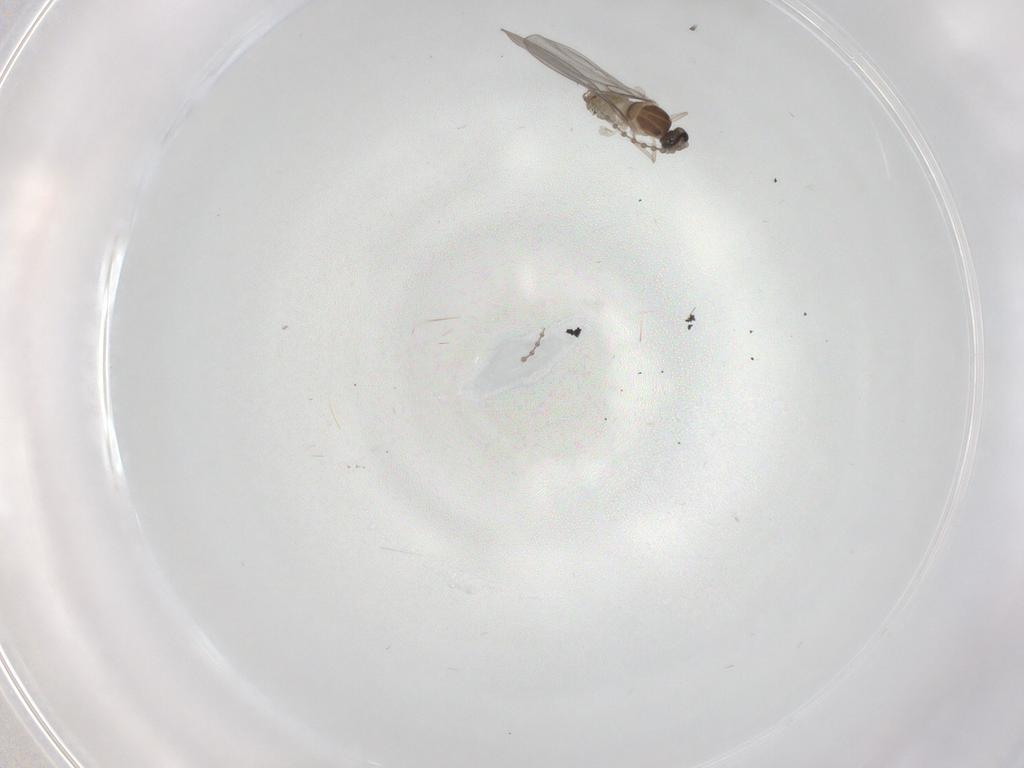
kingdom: Animalia
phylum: Arthropoda
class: Insecta
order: Diptera
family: Cecidomyiidae
